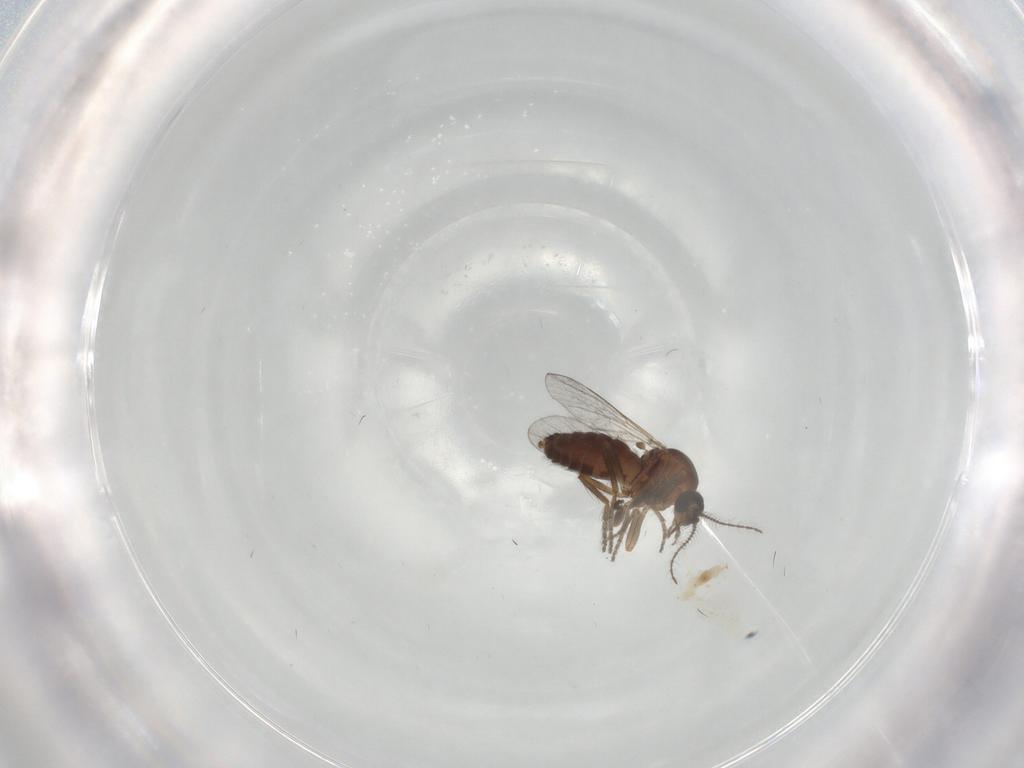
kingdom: Animalia
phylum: Arthropoda
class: Insecta
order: Diptera
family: Ceratopogonidae
